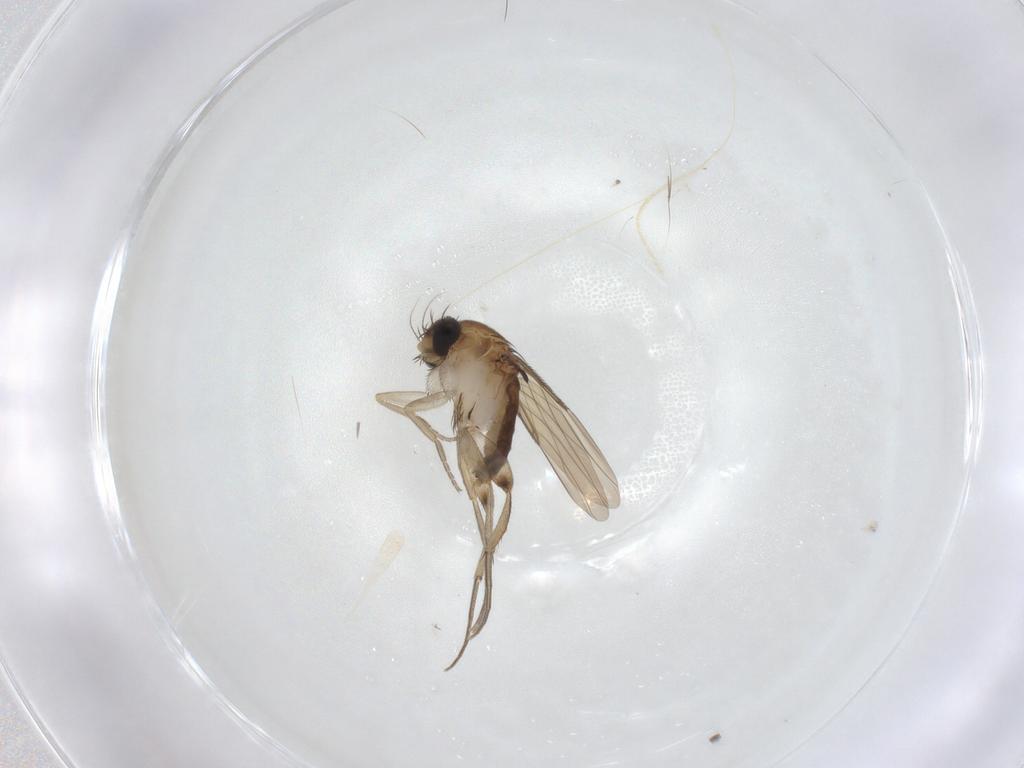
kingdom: Animalia
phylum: Arthropoda
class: Insecta
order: Diptera
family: Phoridae
